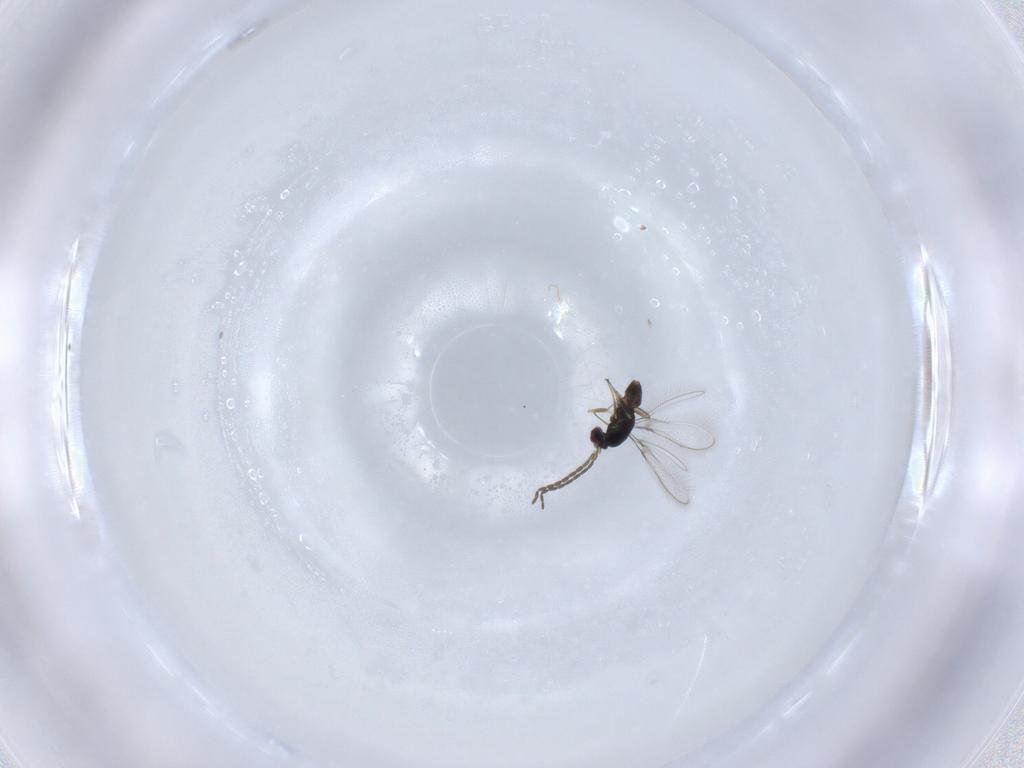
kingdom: Animalia
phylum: Arthropoda
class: Insecta
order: Hymenoptera
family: Mymaridae
